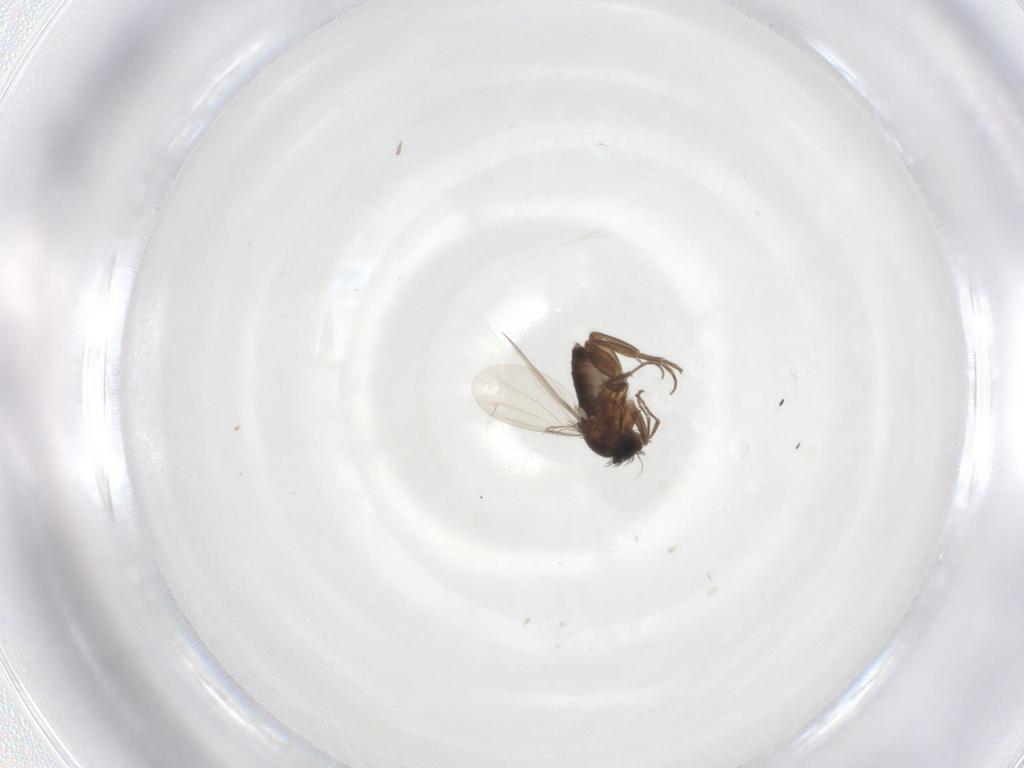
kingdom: Animalia
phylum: Arthropoda
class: Insecta
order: Diptera
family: Phoridae
